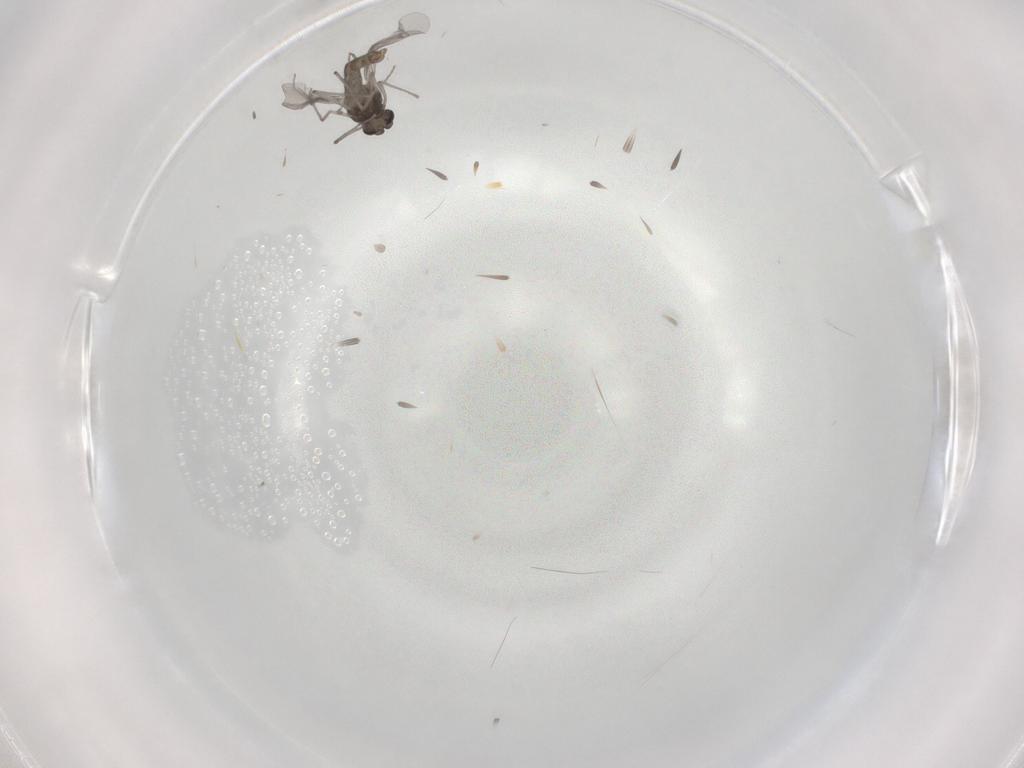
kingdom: Animalia
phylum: Arthropoda
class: Insecta
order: Diptera
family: Chironomidae
